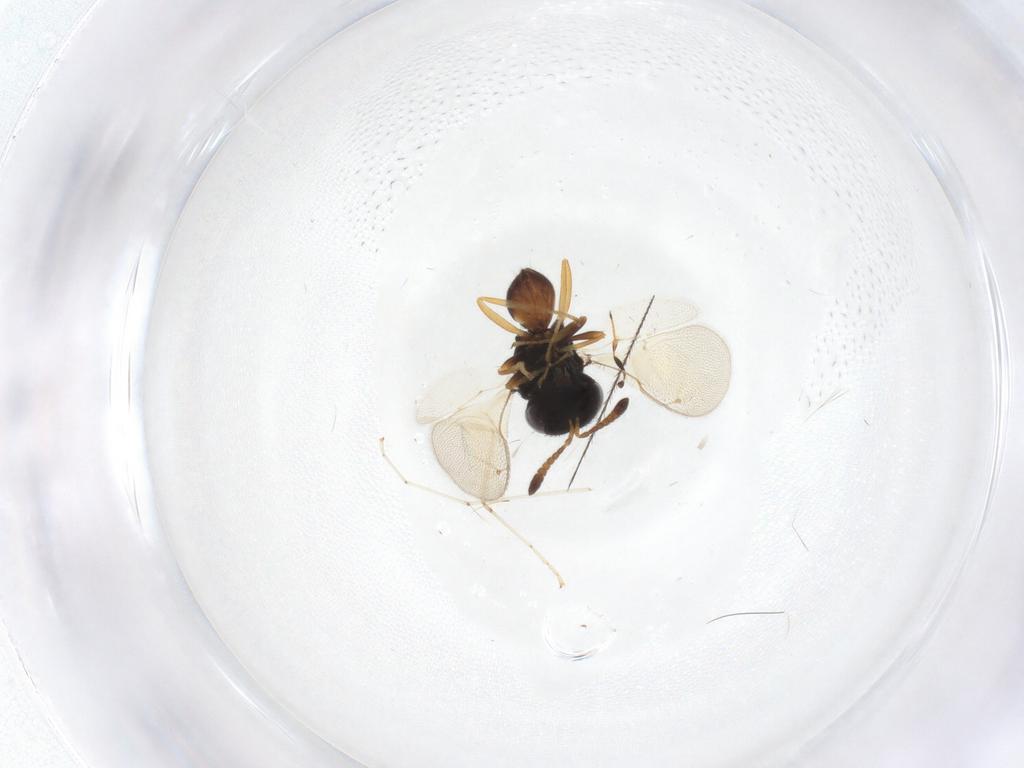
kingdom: Animalia
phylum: Arthropoda
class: Insecta
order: Hymenoptera
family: Pteromalidae
